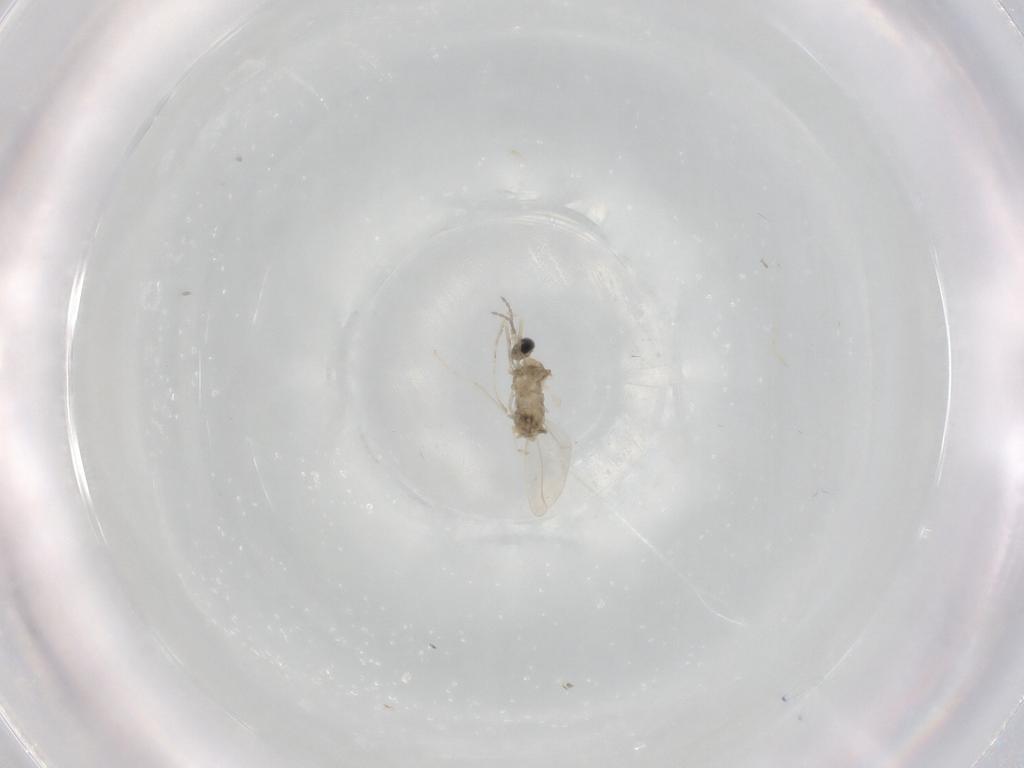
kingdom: Animalia
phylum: Arthropoda
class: Insecta
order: Diptera
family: Cecidomyiidae
